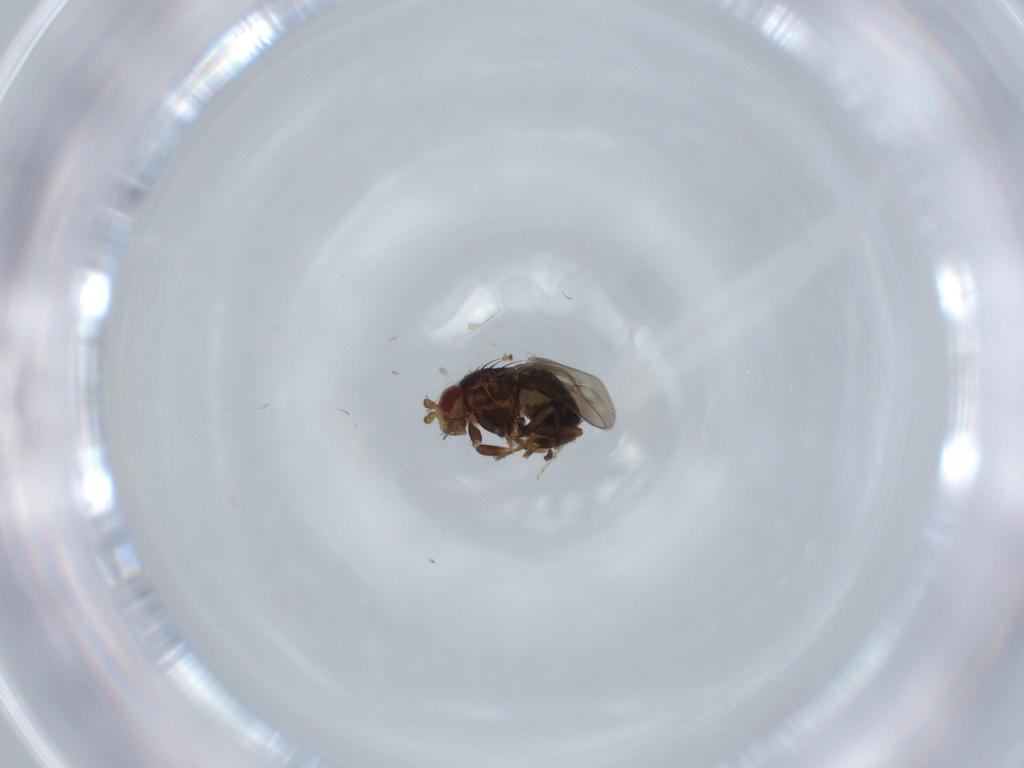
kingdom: Animalia
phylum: Arthropoda
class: Insecta
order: Diptera
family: Ceratopogonidae
